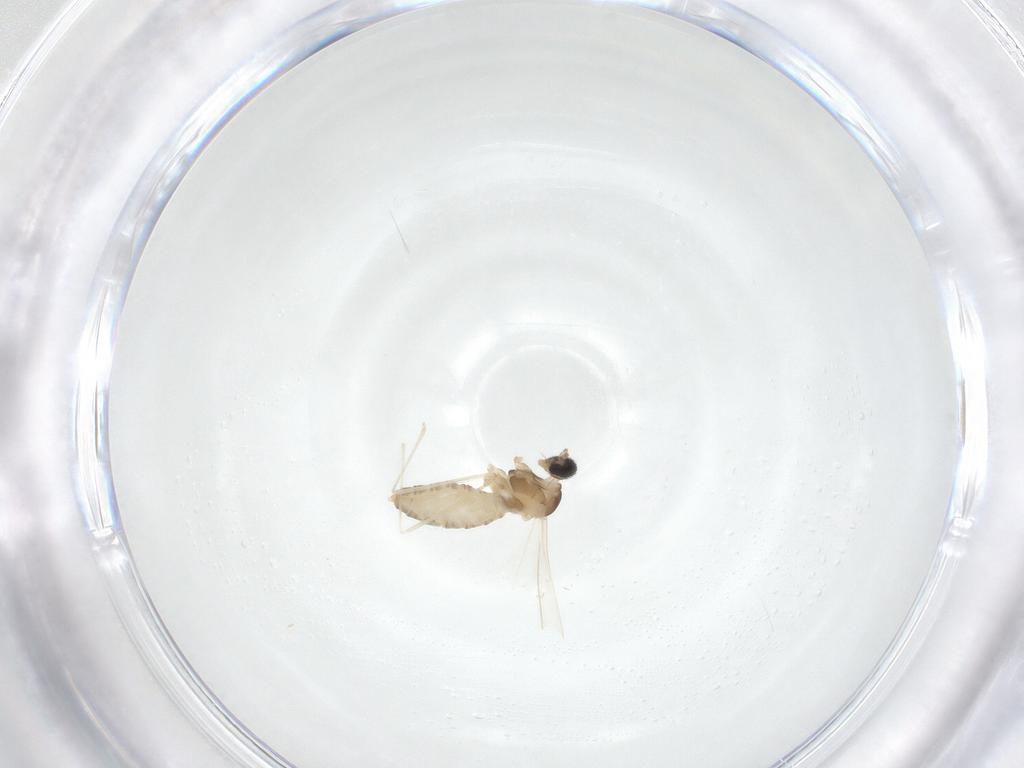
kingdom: Animalia
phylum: Arthropoda
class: Insecta
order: Diptera
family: Cecidomyiidae
